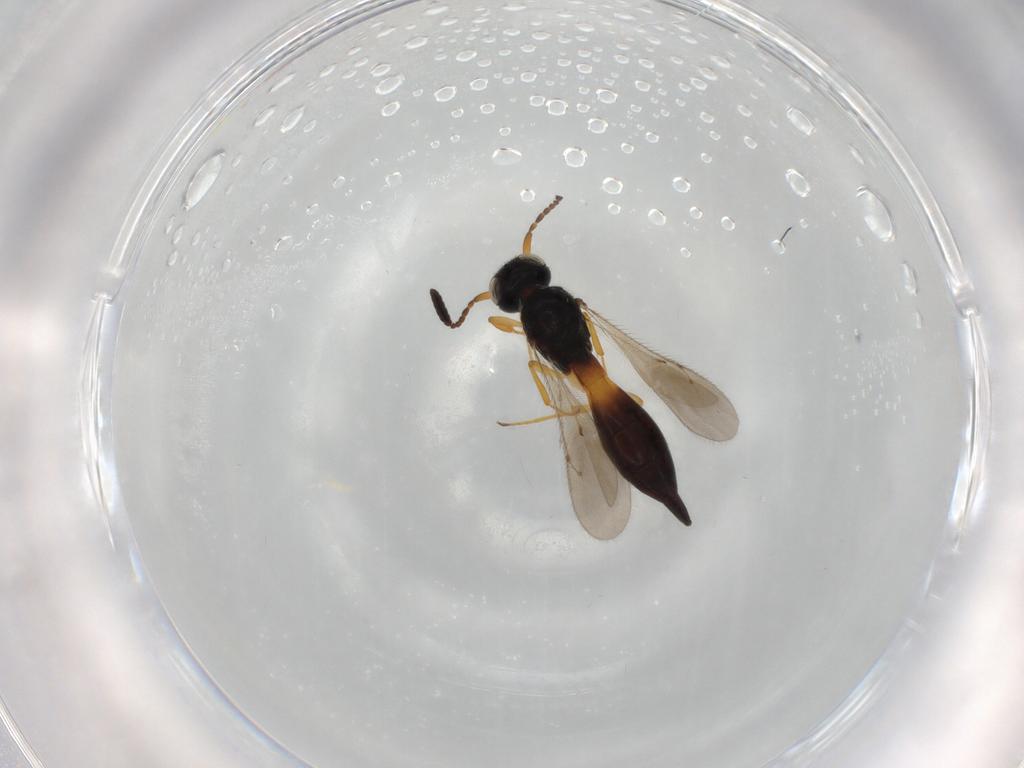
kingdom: Animalia
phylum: Arthropoda
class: Insecta
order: Hymenoptera
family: Scelionidae
